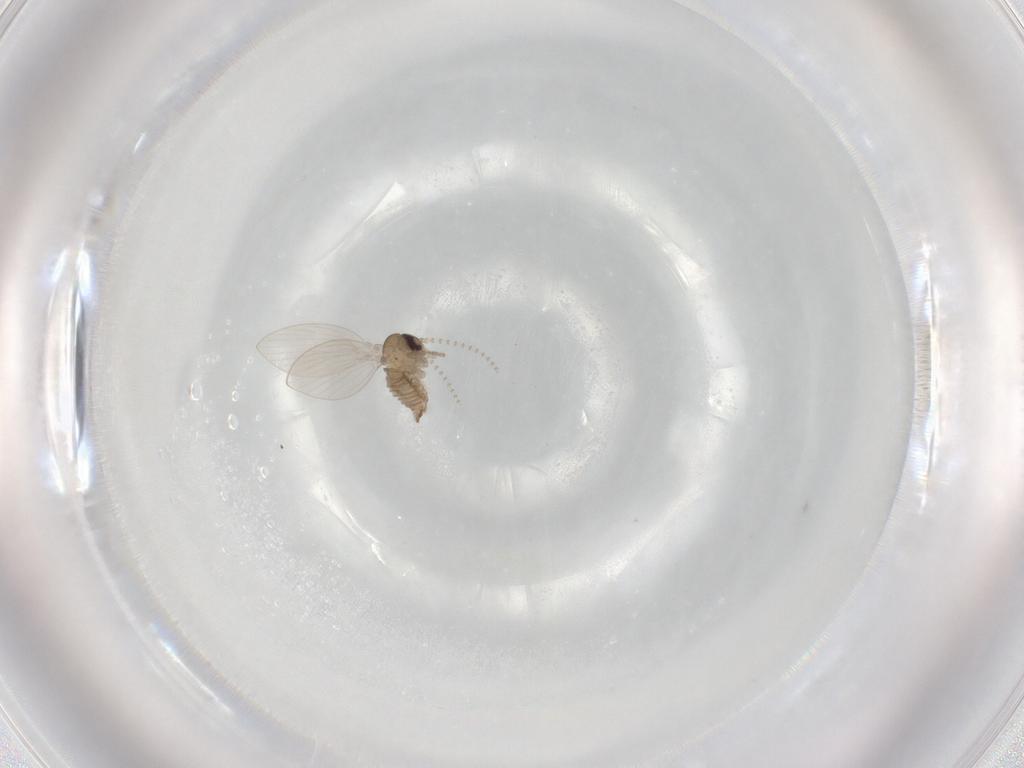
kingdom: Animalia
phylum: Arthropoda
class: Insecta
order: Diptera
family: Psychodidae
